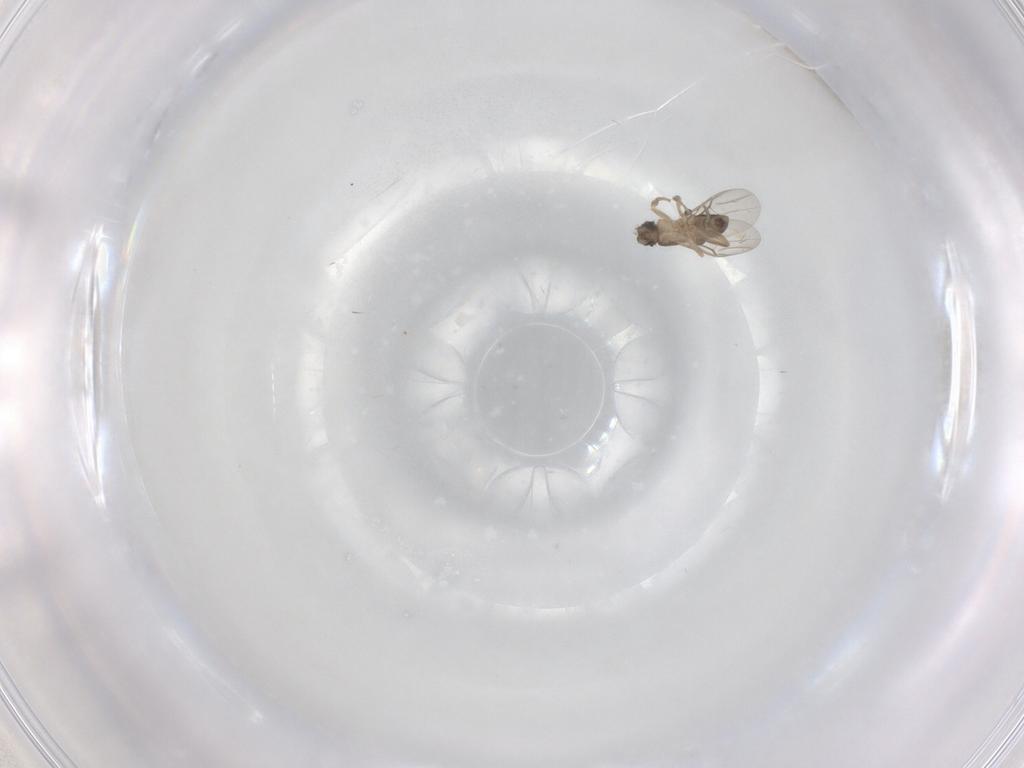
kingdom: Animalia
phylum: Arthropoda
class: Insecta
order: Diptera
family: Phoridae
